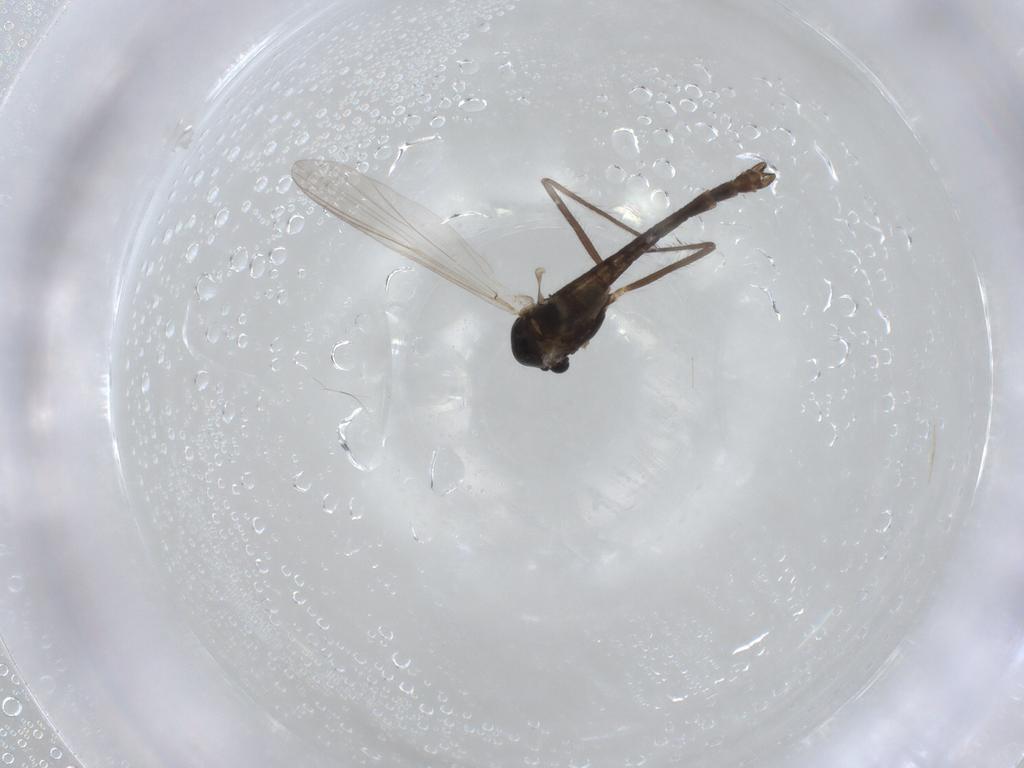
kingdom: Animalia
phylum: Arthropoda
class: Insecta
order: Diptera
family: Chironomidae
